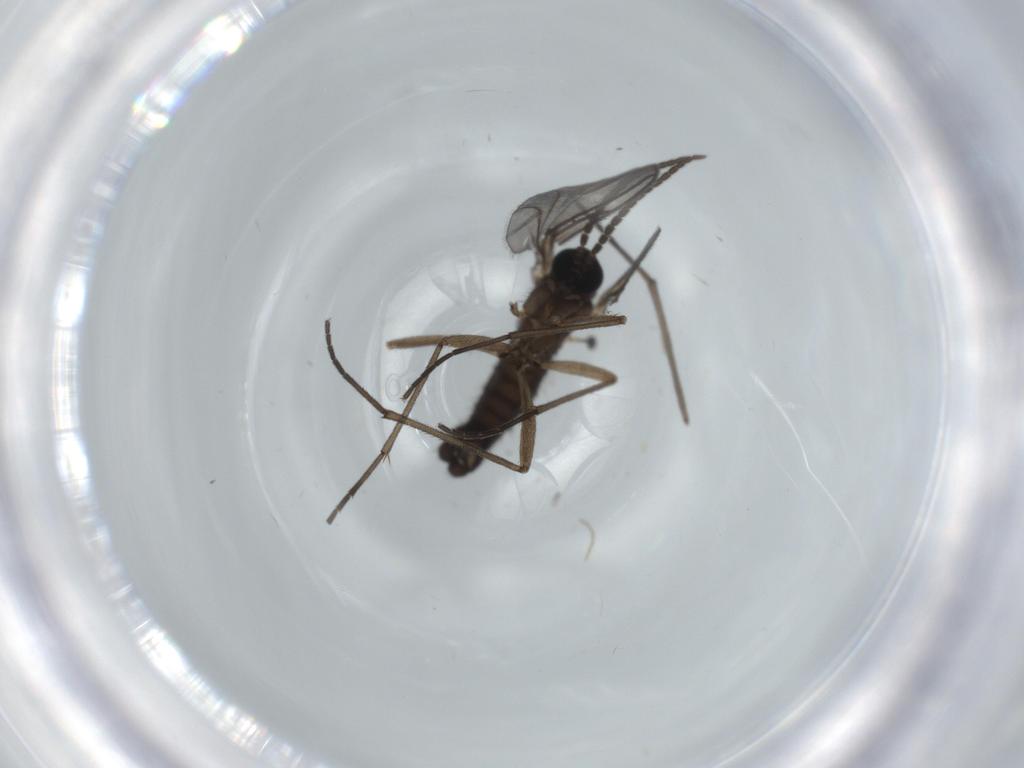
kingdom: Animalia
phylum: Arthropoda
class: Insecta
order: Diptera
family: Sciaridae
